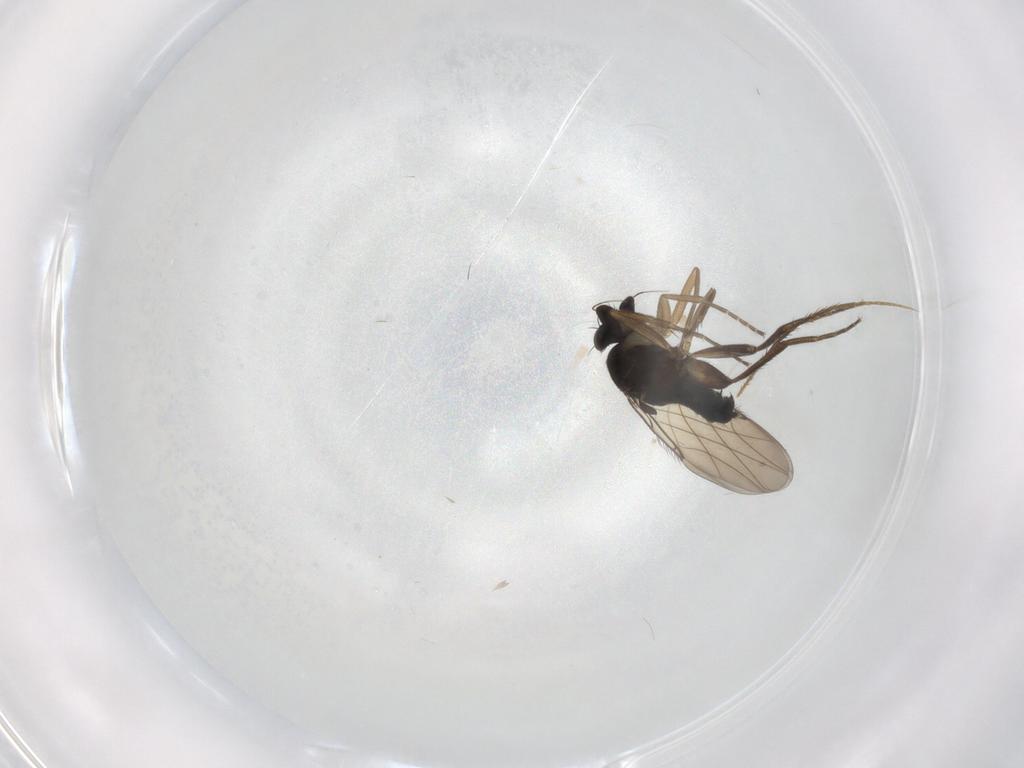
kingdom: Animalia
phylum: Arthropoda
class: Insecta
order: Diptera
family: Phoridae
